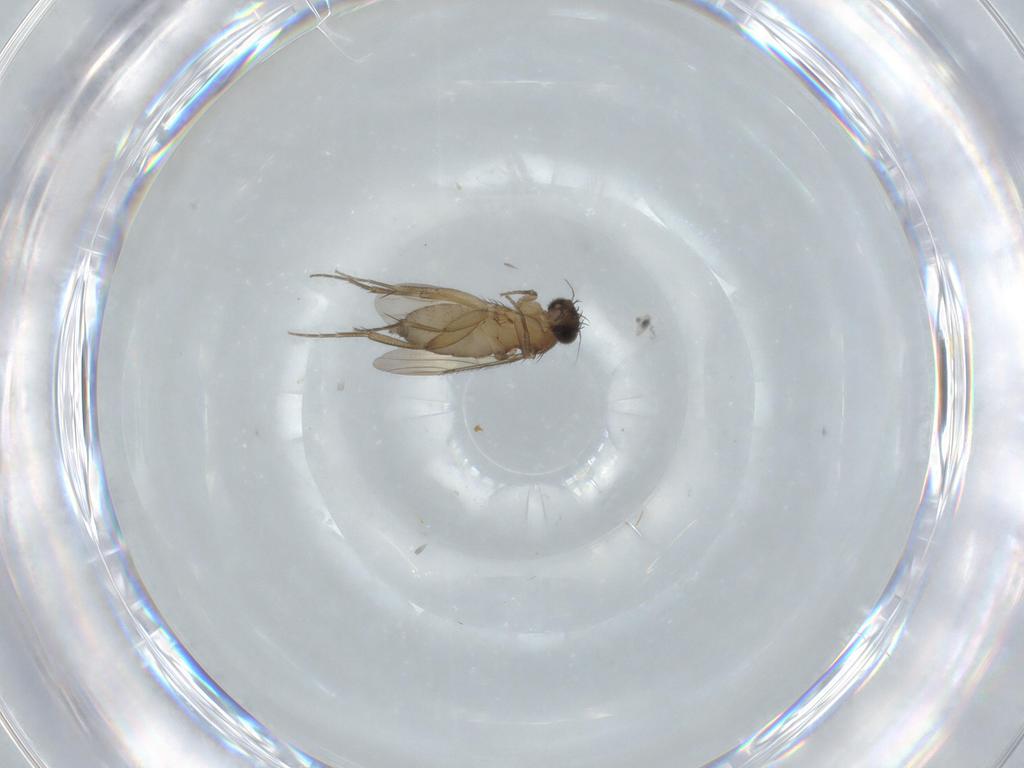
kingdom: Animalia
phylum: Arthropoda
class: Insecta
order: Diptera
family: Phoridae
